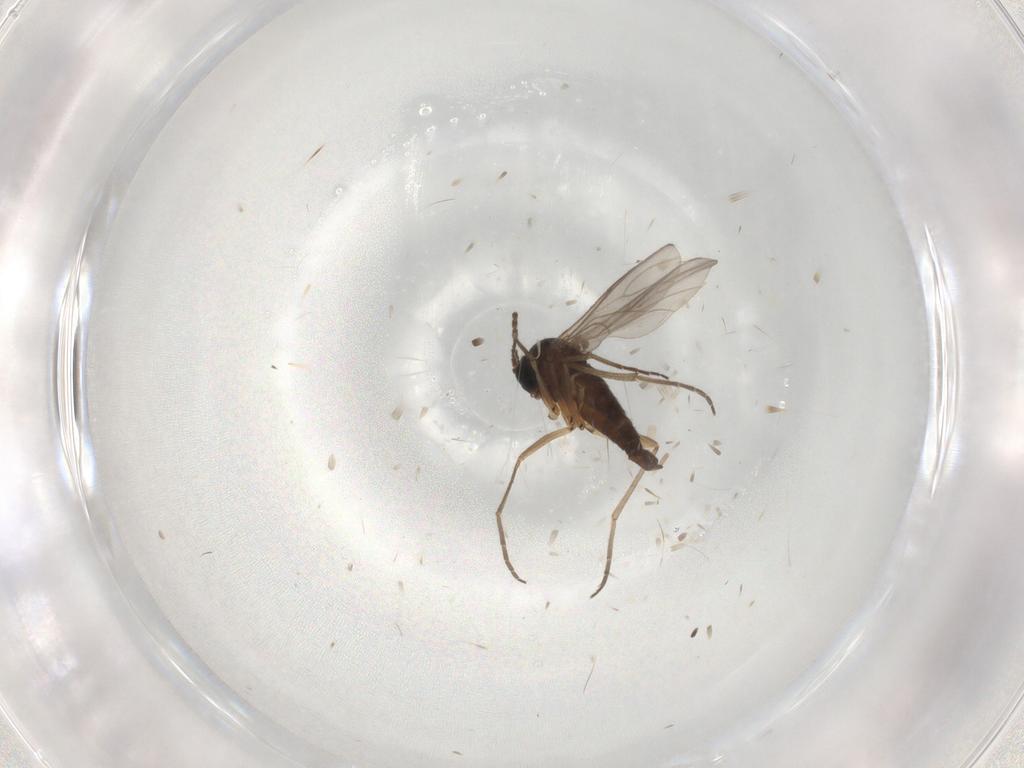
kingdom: Animalia
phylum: Arthropoda
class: Insecta
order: Diptera
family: Sciaridae
